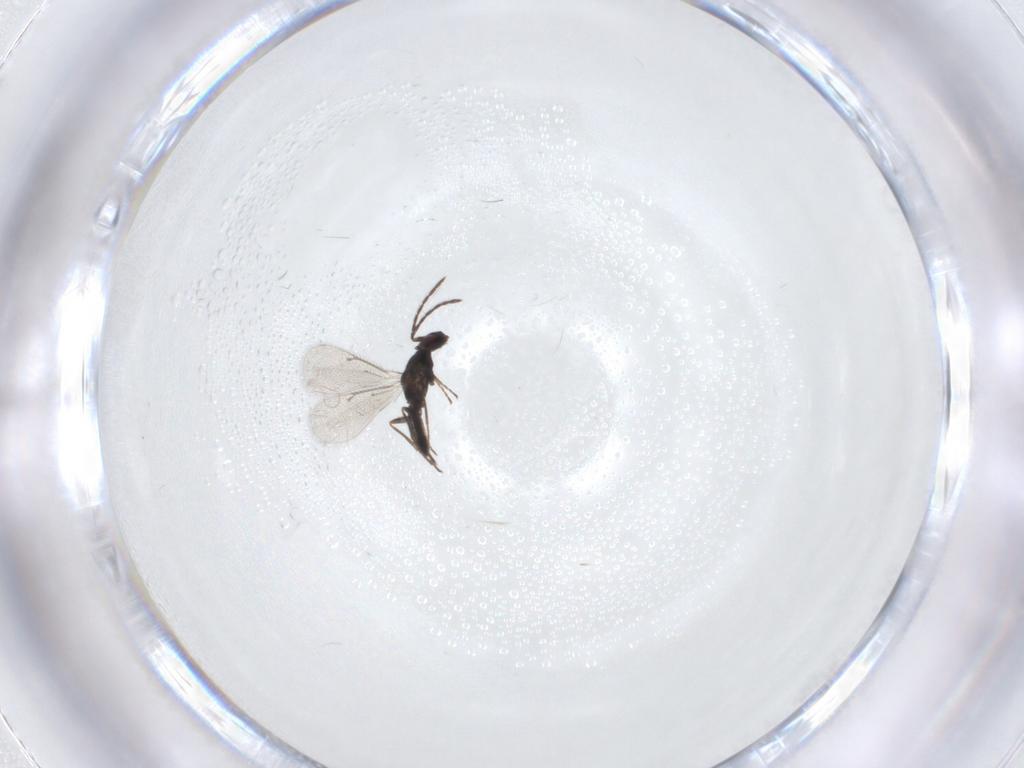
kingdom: Animalia
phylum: Arthropoda
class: Insecta
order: Hymenoptera
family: Eulophidae
